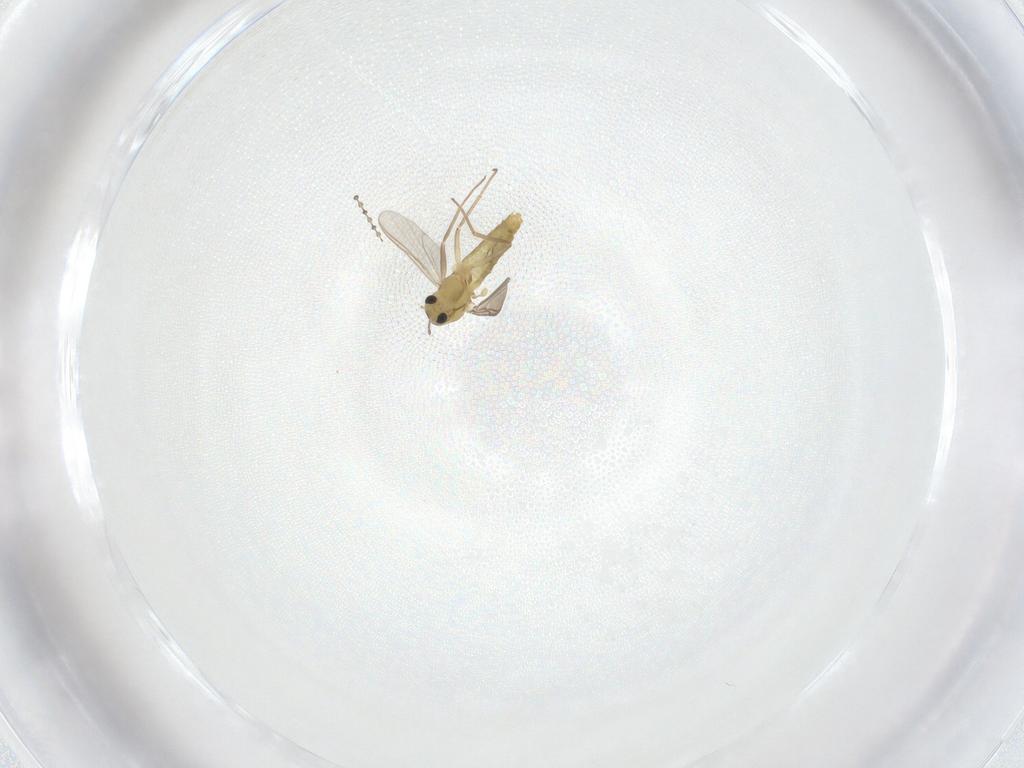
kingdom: Animalia
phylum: Arthropoda
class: Insecta
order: Diptera
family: Cecidomyiidae
